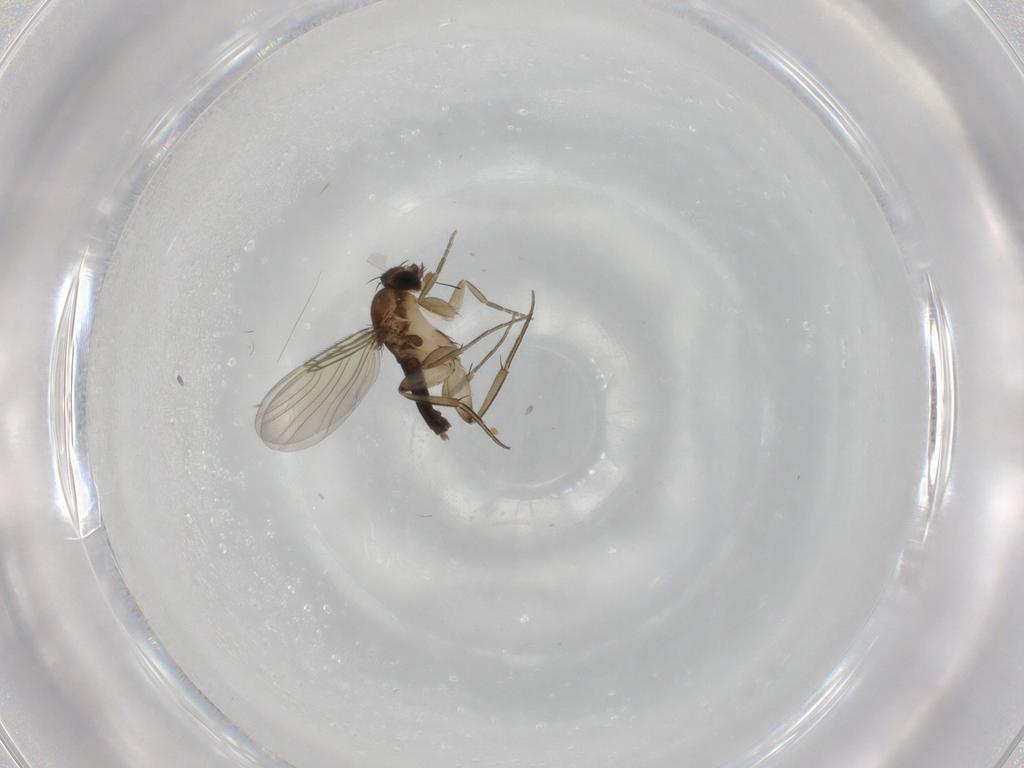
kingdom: Animalia
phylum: Arthropoda
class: Insecta
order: Diptera
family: Phoridae
